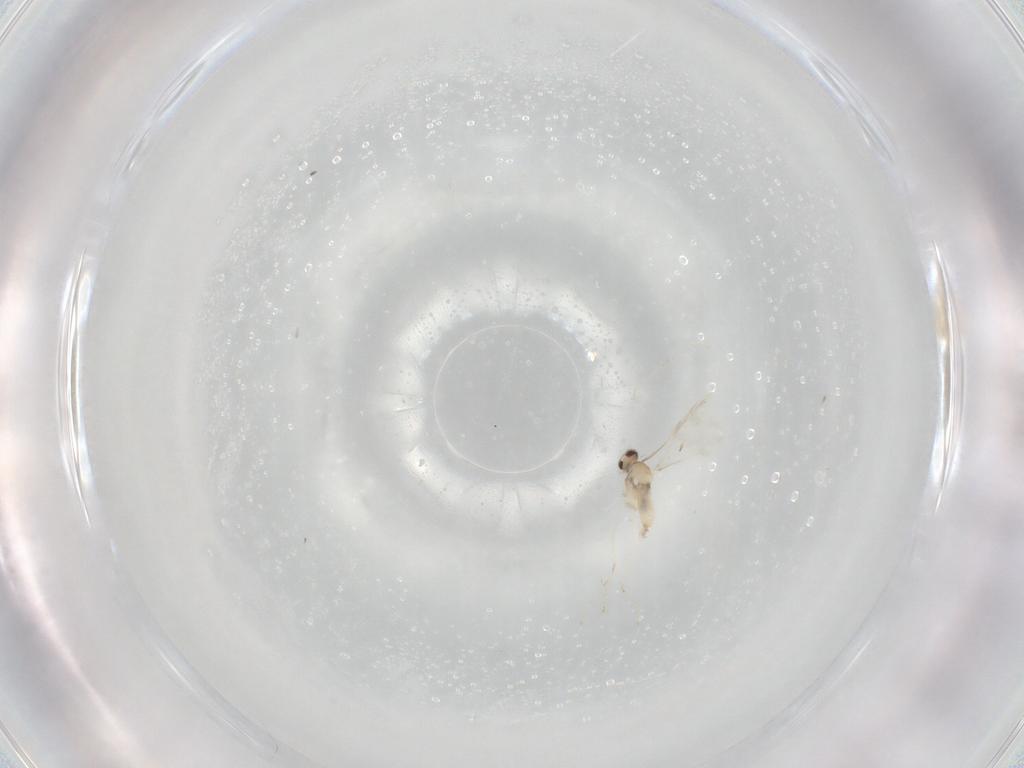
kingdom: Animalia
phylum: Arthropoda
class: Insecta
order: Diptera
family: Cecidomyiidae
